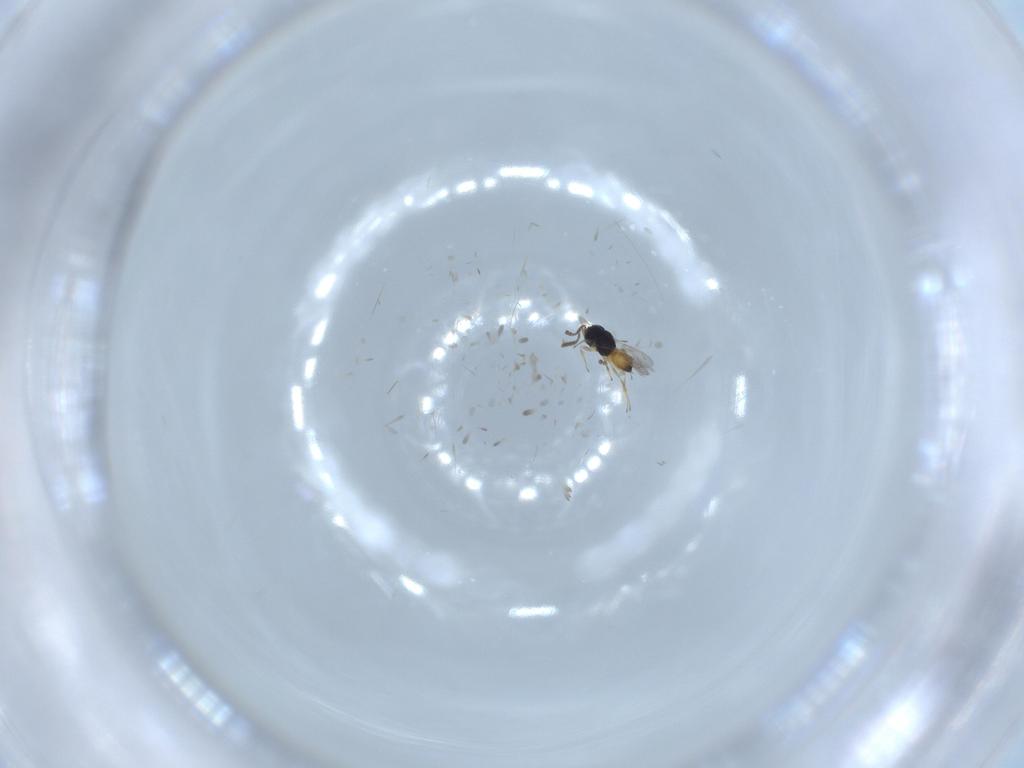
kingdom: Animalia
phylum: Arthropoda
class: Insecta
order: Hymenoptera
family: Scelionidae
